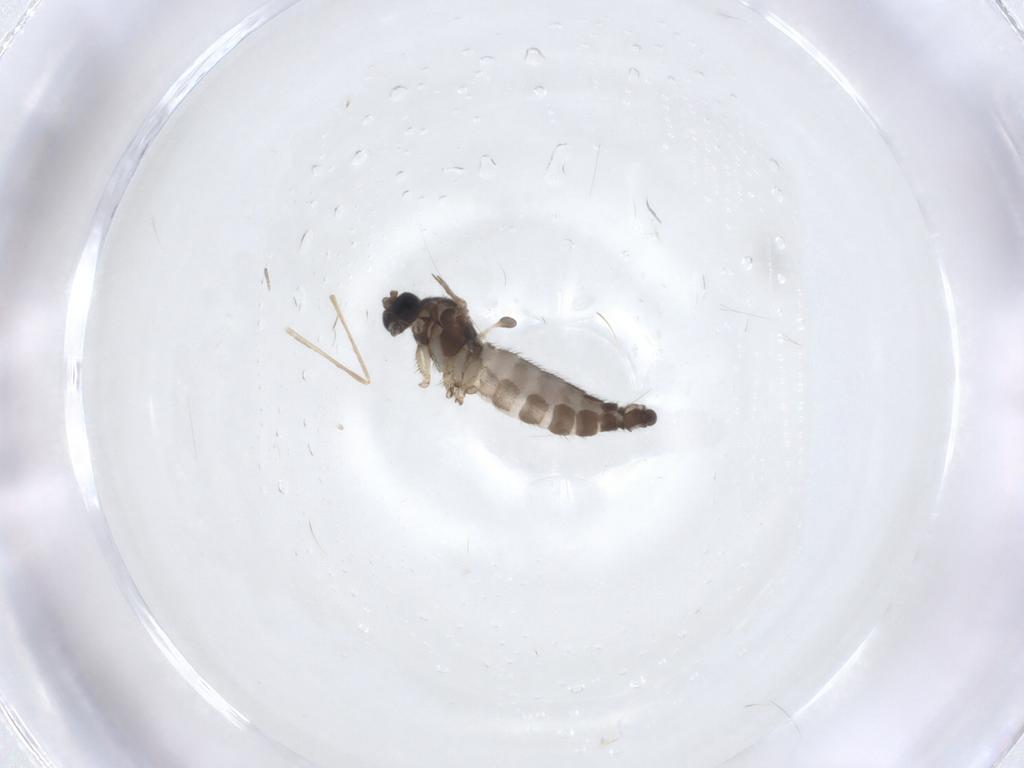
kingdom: Animalia
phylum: Arthropoda
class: Insecta
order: Diptera
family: Sciaridae
